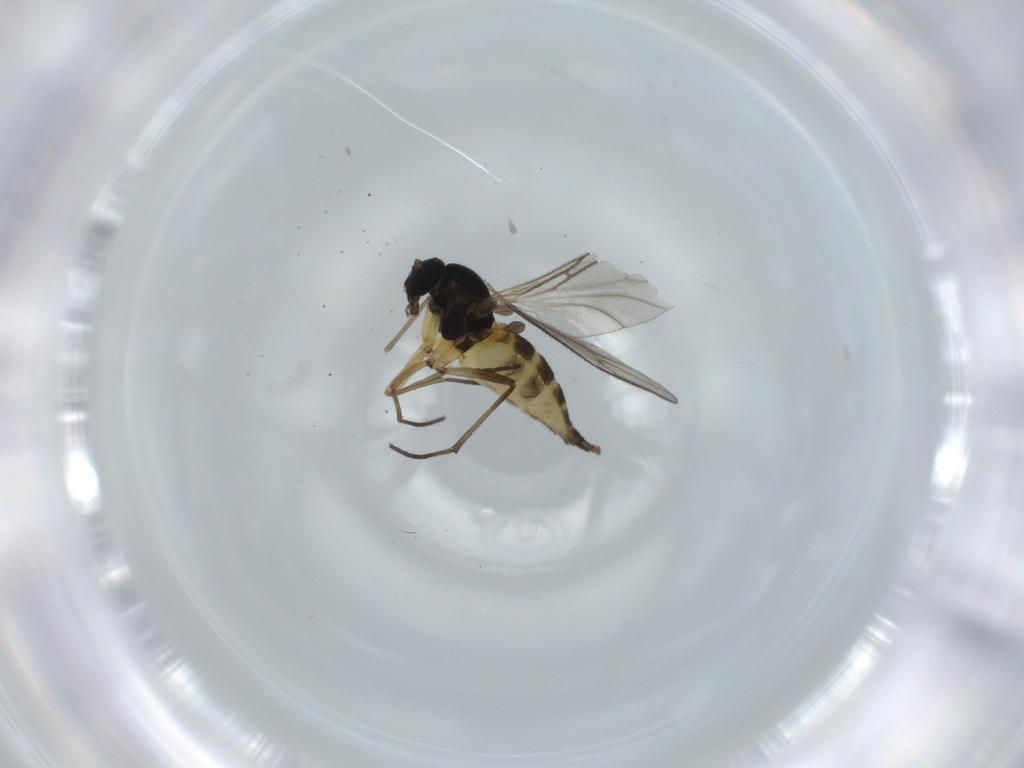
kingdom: Animalia
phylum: Arthropoda
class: Insecta
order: Diptera
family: Sciaridae
